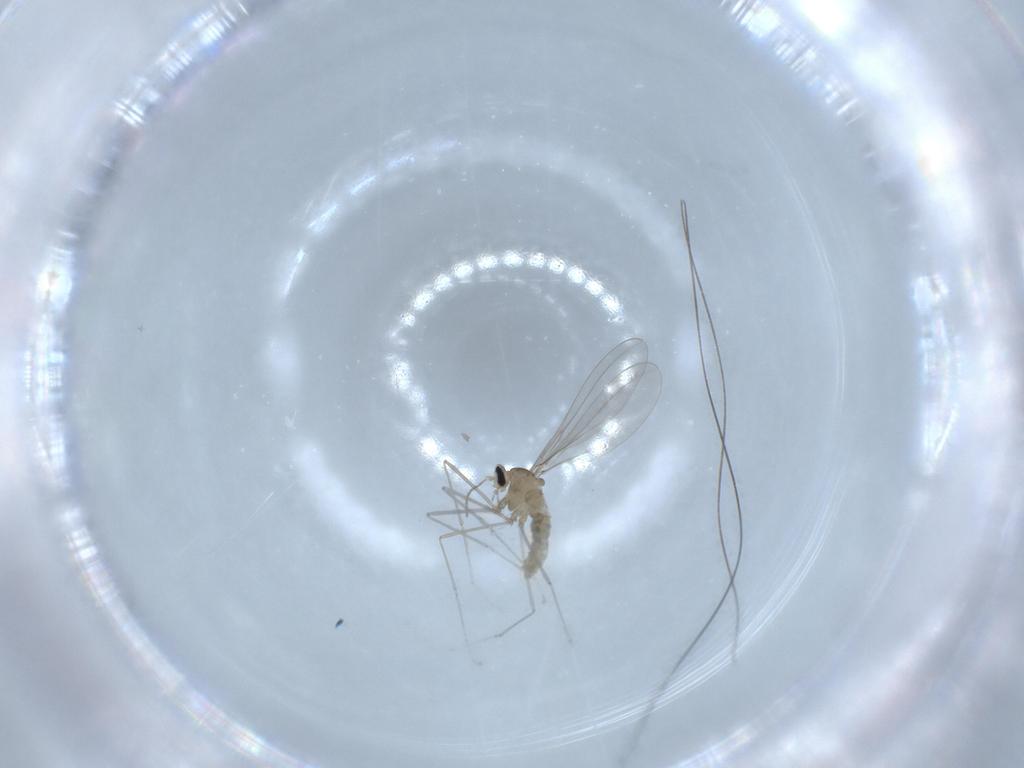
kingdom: Animalia
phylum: Arthropoda
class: Insecta
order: Diptera
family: Cecidomyiidae
